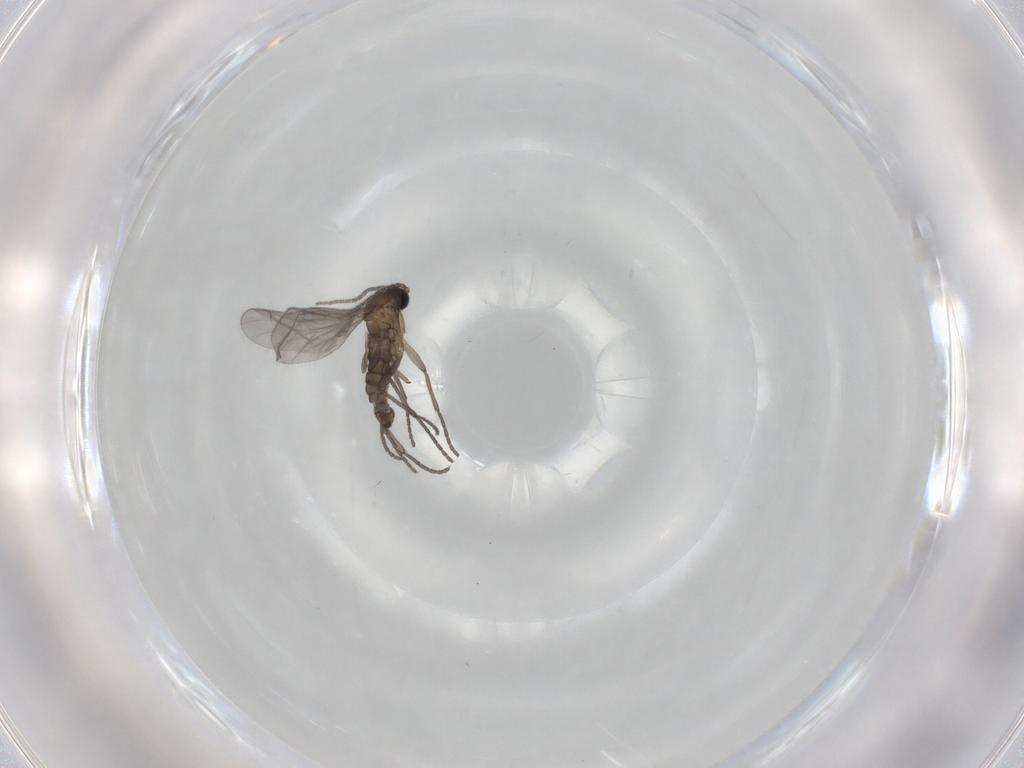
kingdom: Animalia
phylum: Arthropoda
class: Insecta
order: Diptera
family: Sciaridae
